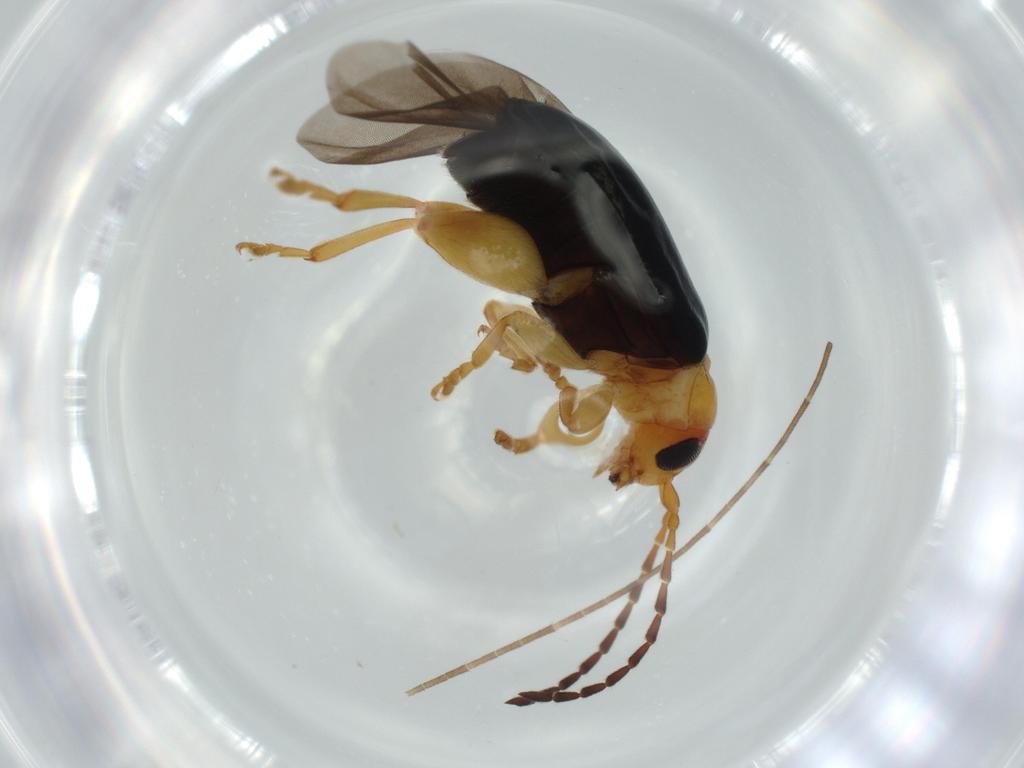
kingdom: Animalia
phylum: Arthropoda
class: Insecta
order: Coleoptera
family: Chrysomelidae
